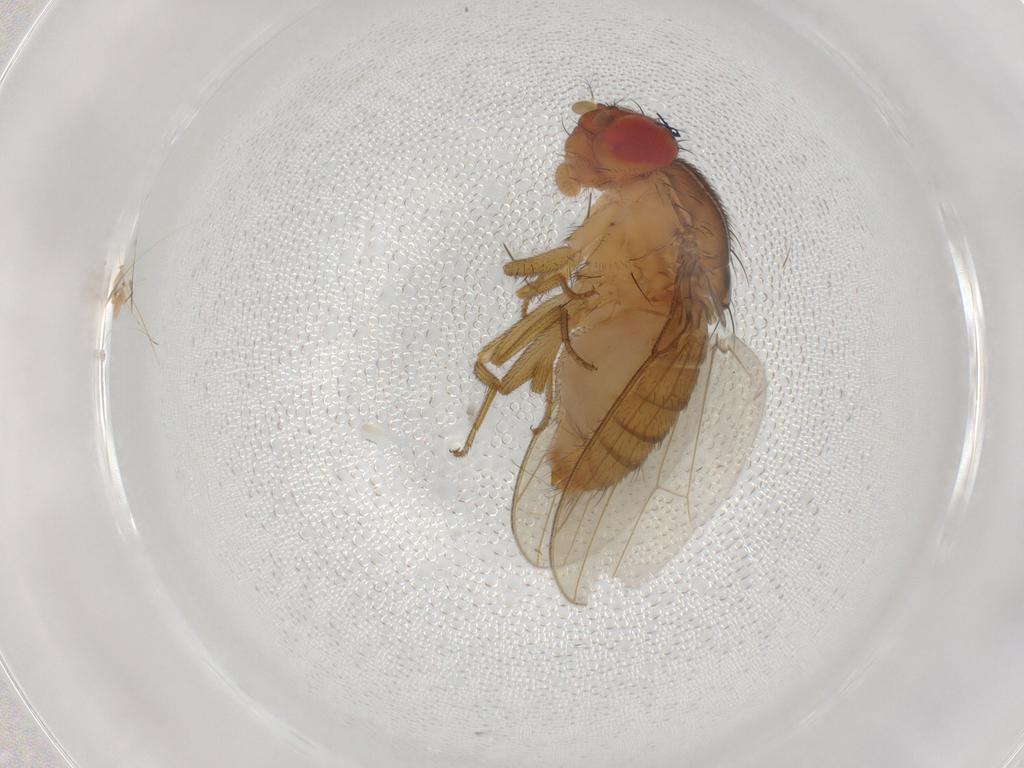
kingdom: Animalia
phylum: Arthropoda
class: Insecta
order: Diptera
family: Drosophilidae
